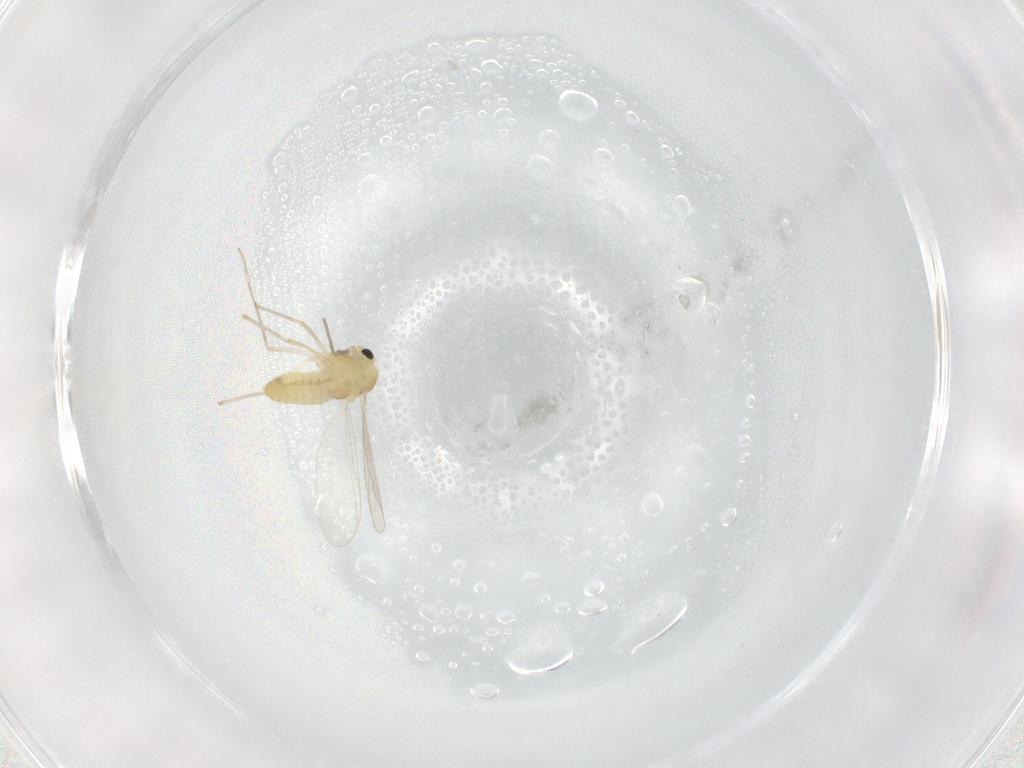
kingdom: Animalia
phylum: Arthropoda
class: Insecta
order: Diptera
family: Chironomidae
